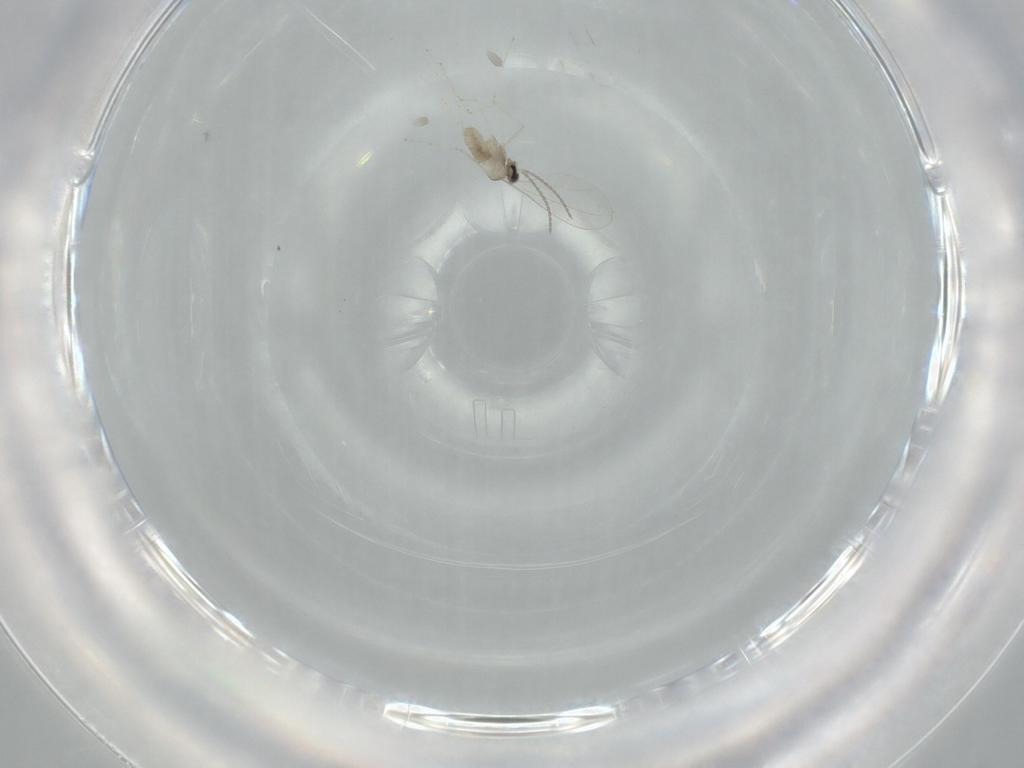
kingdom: Animalia
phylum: Arthropoda
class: Insecta
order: Diptera
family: Cecidomyiidae
